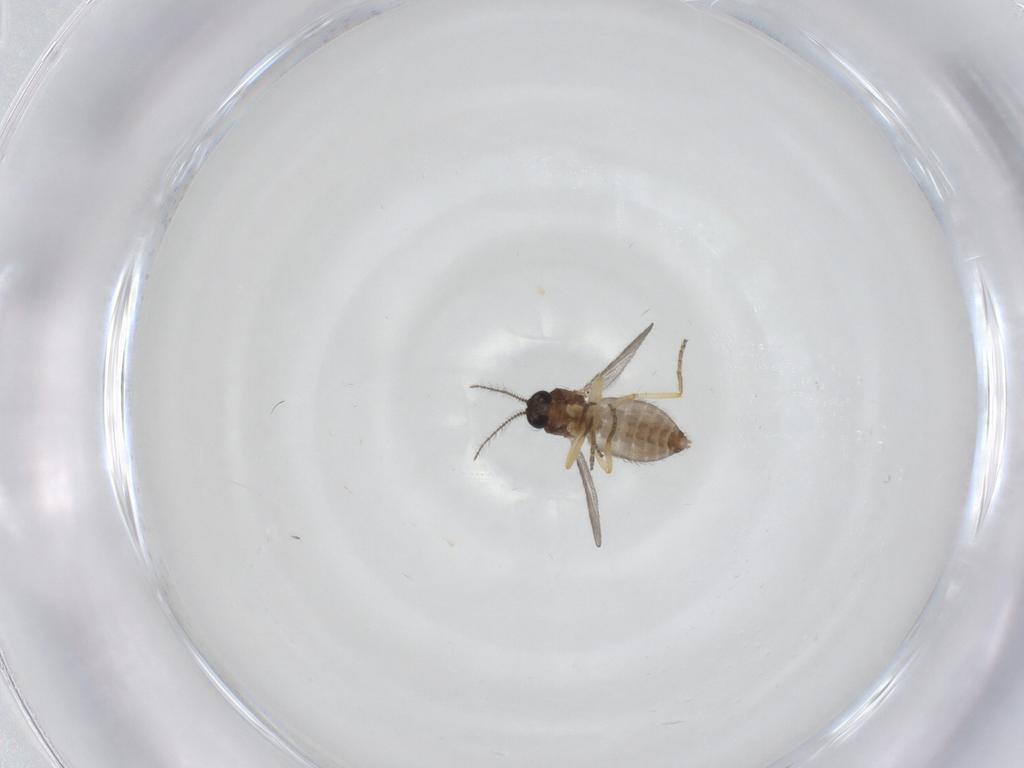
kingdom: Animalia
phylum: Arthropoda
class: Insecta
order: Diptera
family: Ceratopogonidae
